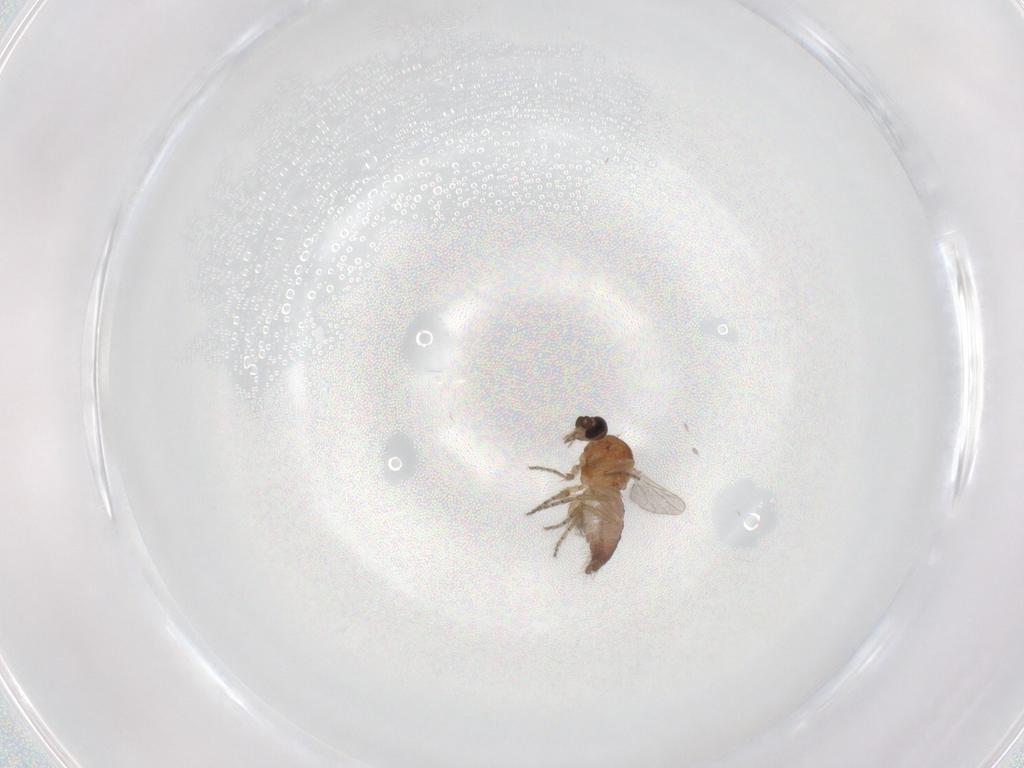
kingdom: Animalia
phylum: Arthropoda
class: Insecta
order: Diptera
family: Ceratopogonidae
